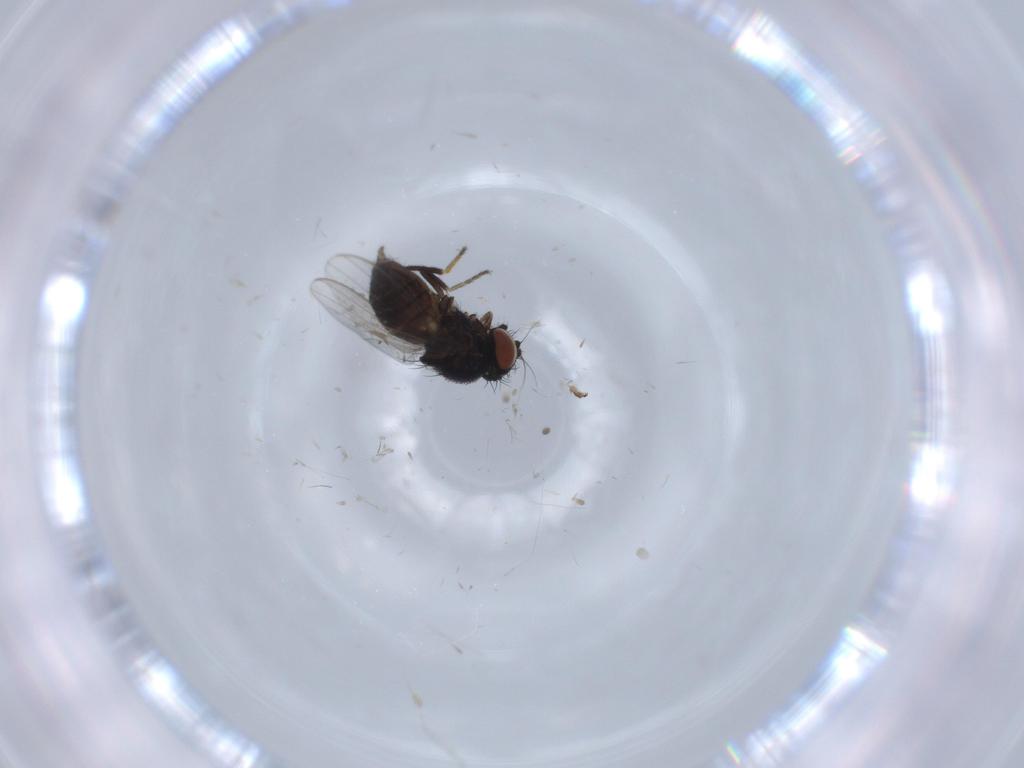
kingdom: Animalia
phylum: Arthropoda
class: Insecta
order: Diptera
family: Milichiidae
